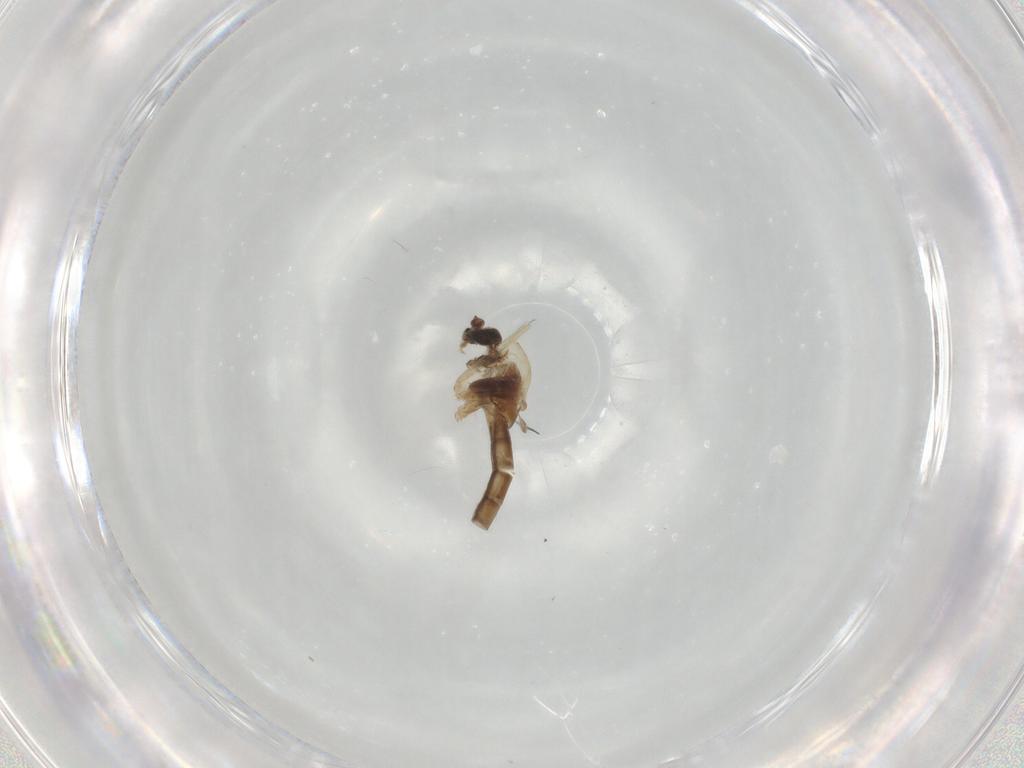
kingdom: Animalia
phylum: Arthropoda
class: Insecta
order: Diptera
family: Chironomidae
